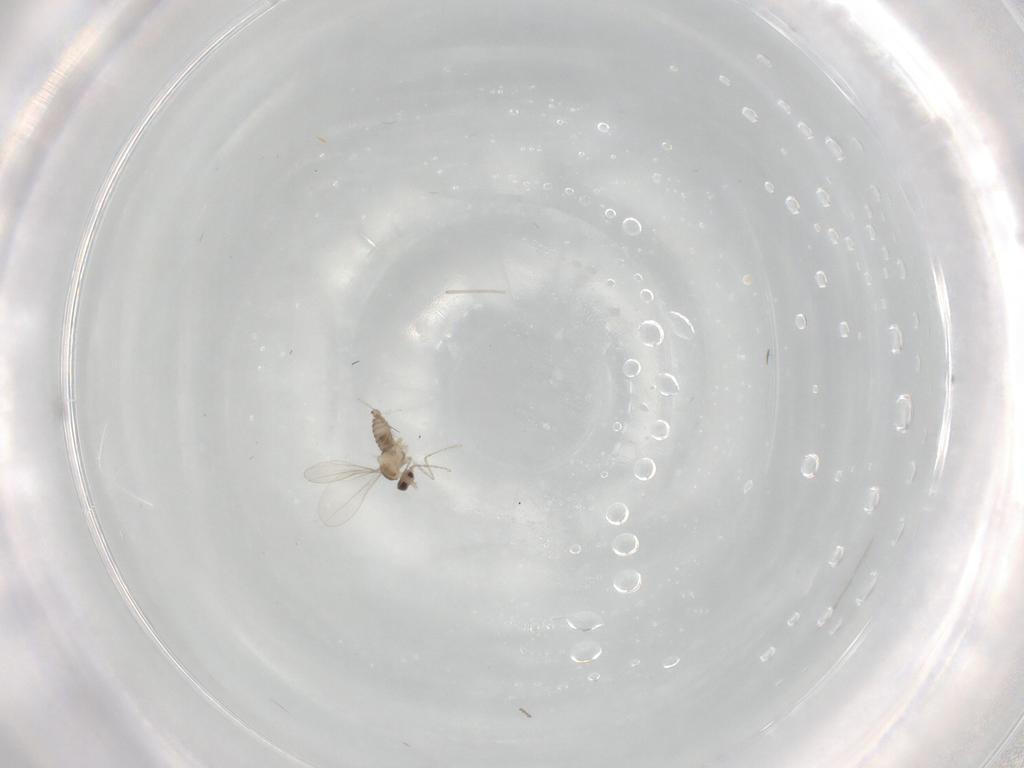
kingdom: Animalia
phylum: Arthropoda
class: Insecta
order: Diptera
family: Cecidomyiidae
